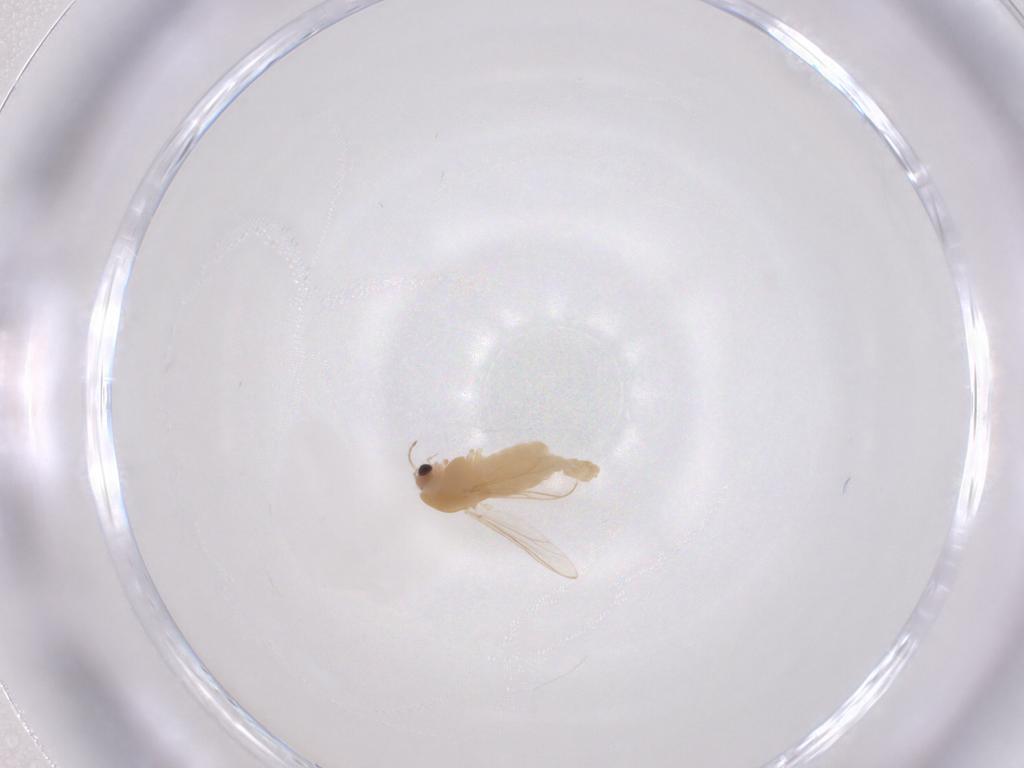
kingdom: Animalia
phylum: Arthropoda
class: Insecta
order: Diptera
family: Chironomidae
